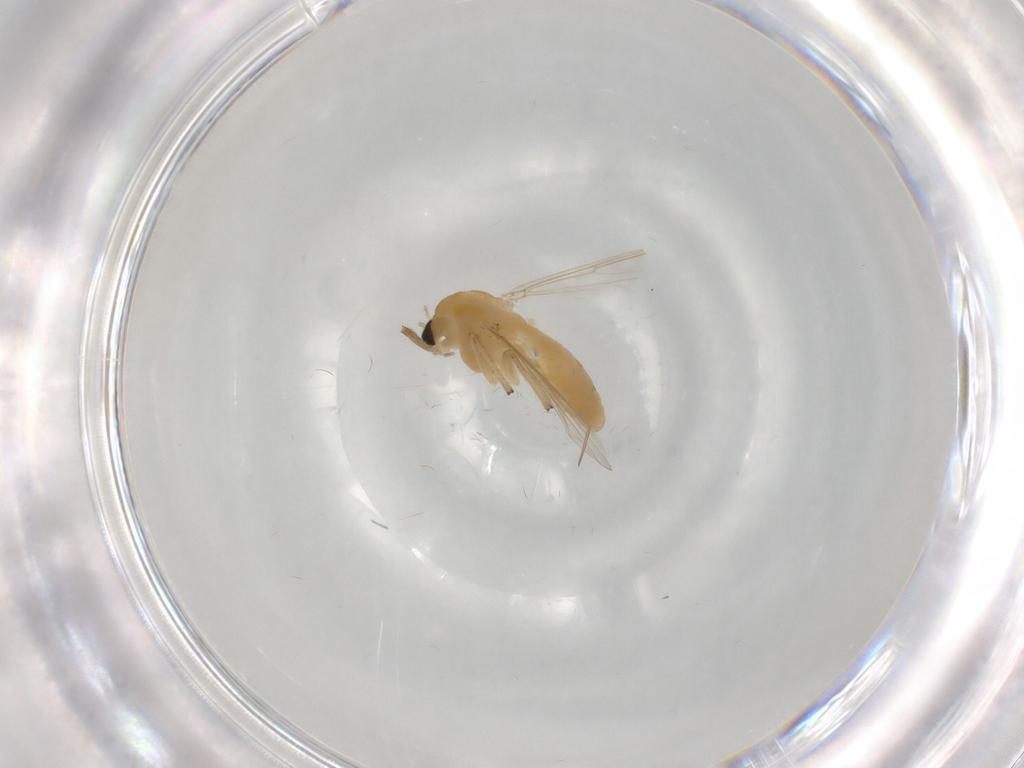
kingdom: Animalia
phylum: Arthropoda
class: Insecta
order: Diptera
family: Chironomidae
